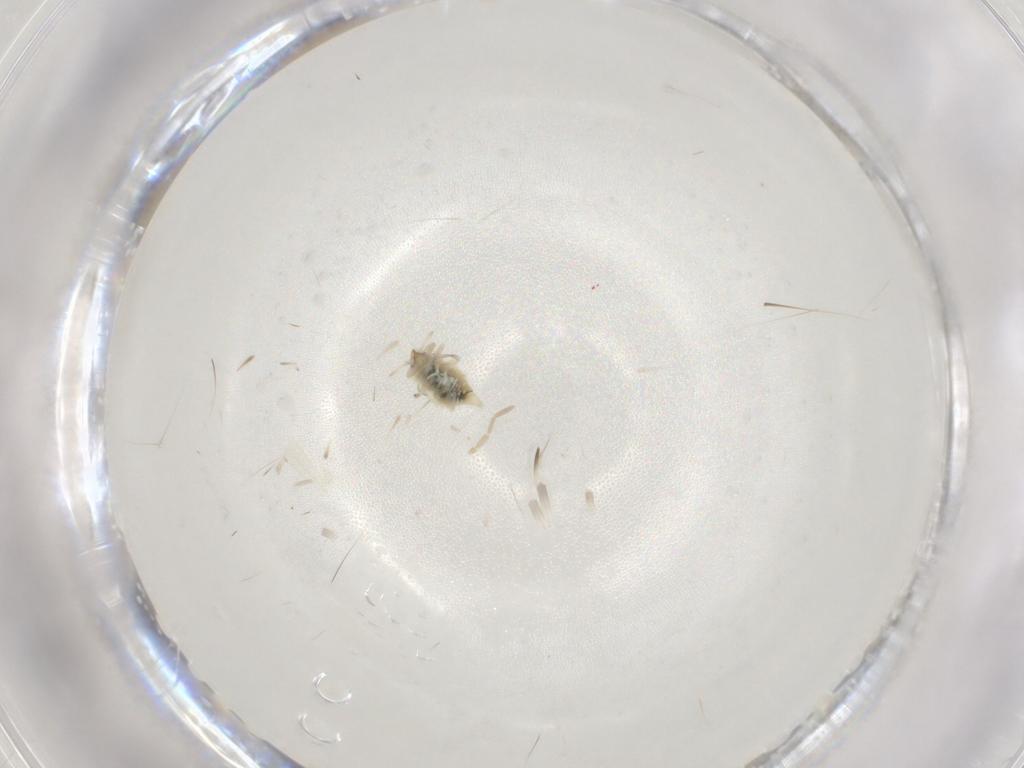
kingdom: Animalia
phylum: Arthropoda
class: Insecta
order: Neuroptera
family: Coniopterygidae
